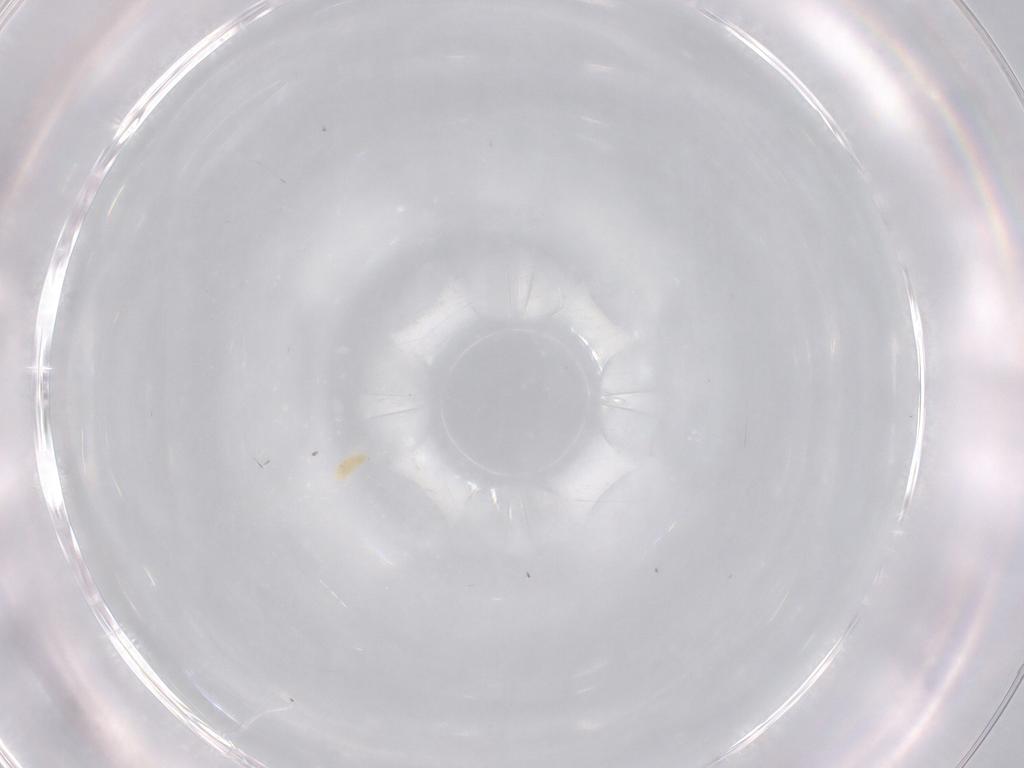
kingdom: Animalia
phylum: Arthropoda
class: Arachnida
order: Trombidiformes
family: Eupodidae
